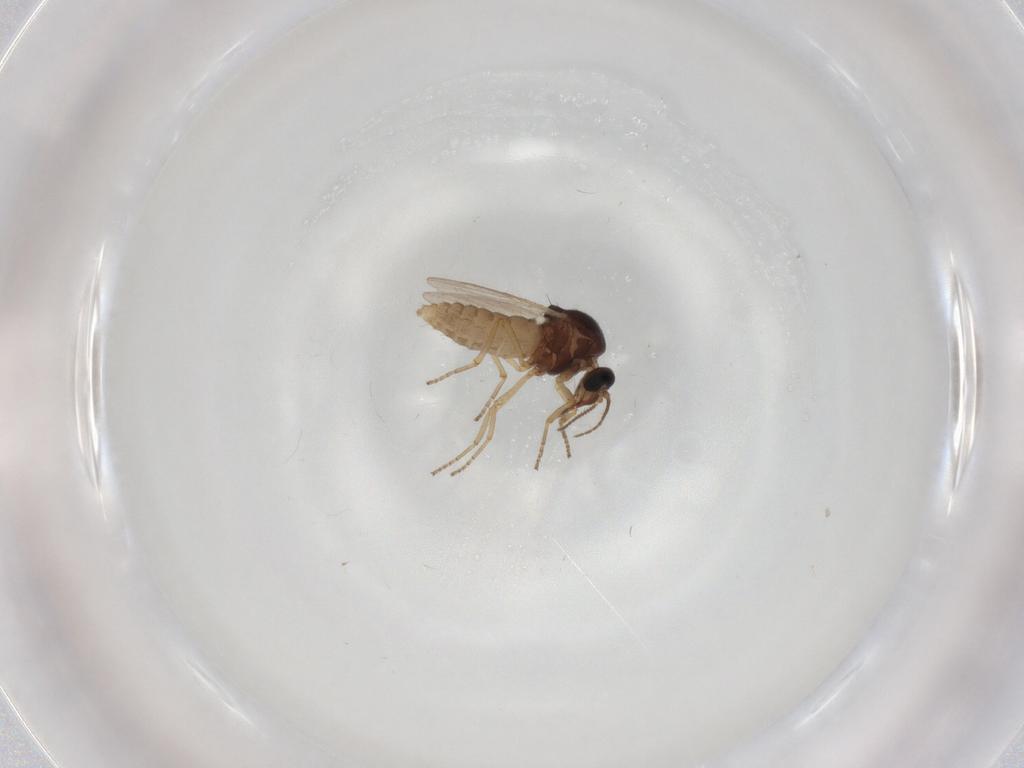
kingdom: Animalia
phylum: Arthropoda
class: Insecta
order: Diptera
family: Ceratopogonidae
